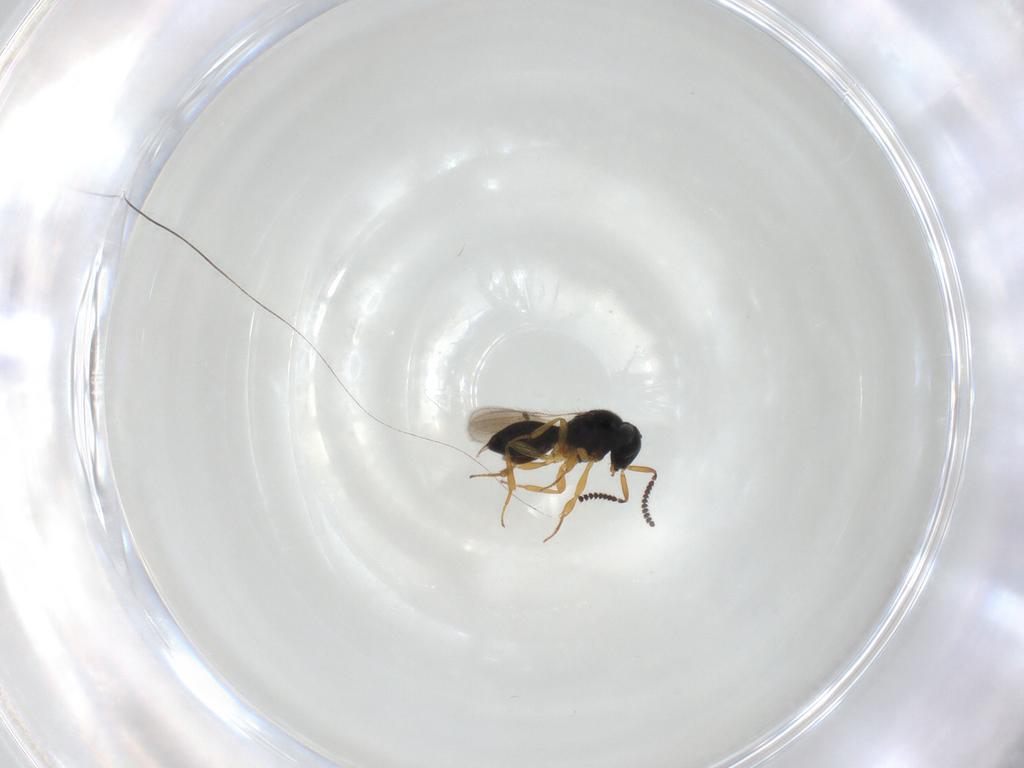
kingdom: Animalia
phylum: Arthropoda
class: Insecta
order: Hymenoptera
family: Scelionidae
